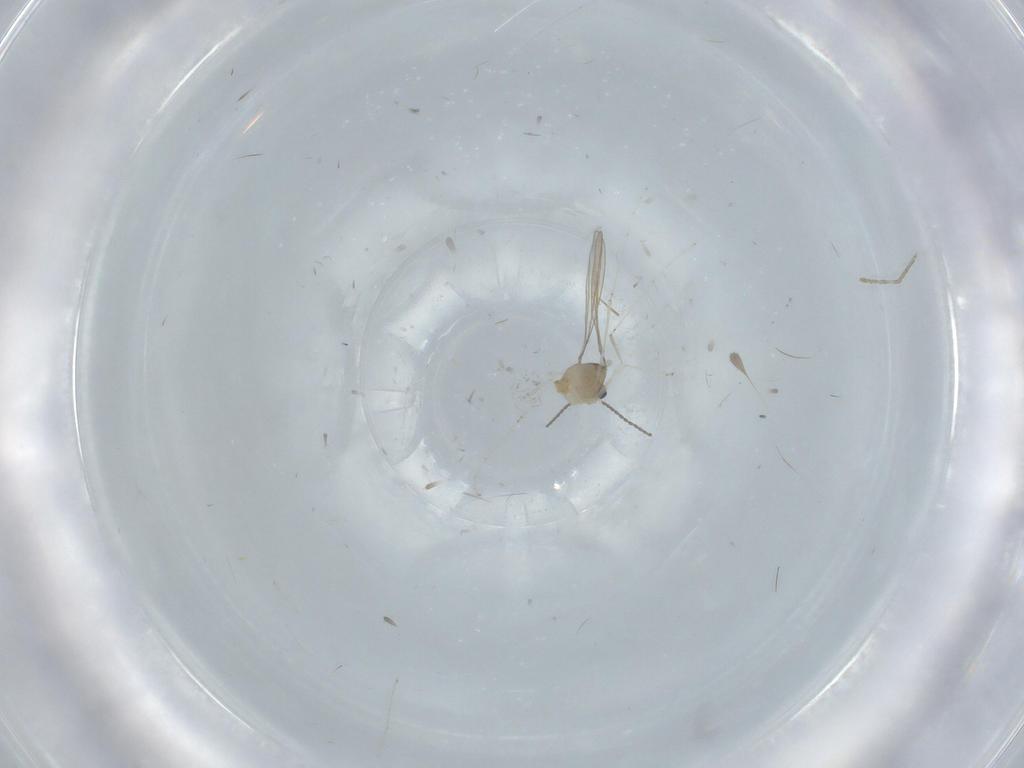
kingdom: Animalia
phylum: Arthropoda
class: Insecta
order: Diptera
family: Cecidomyiidae
